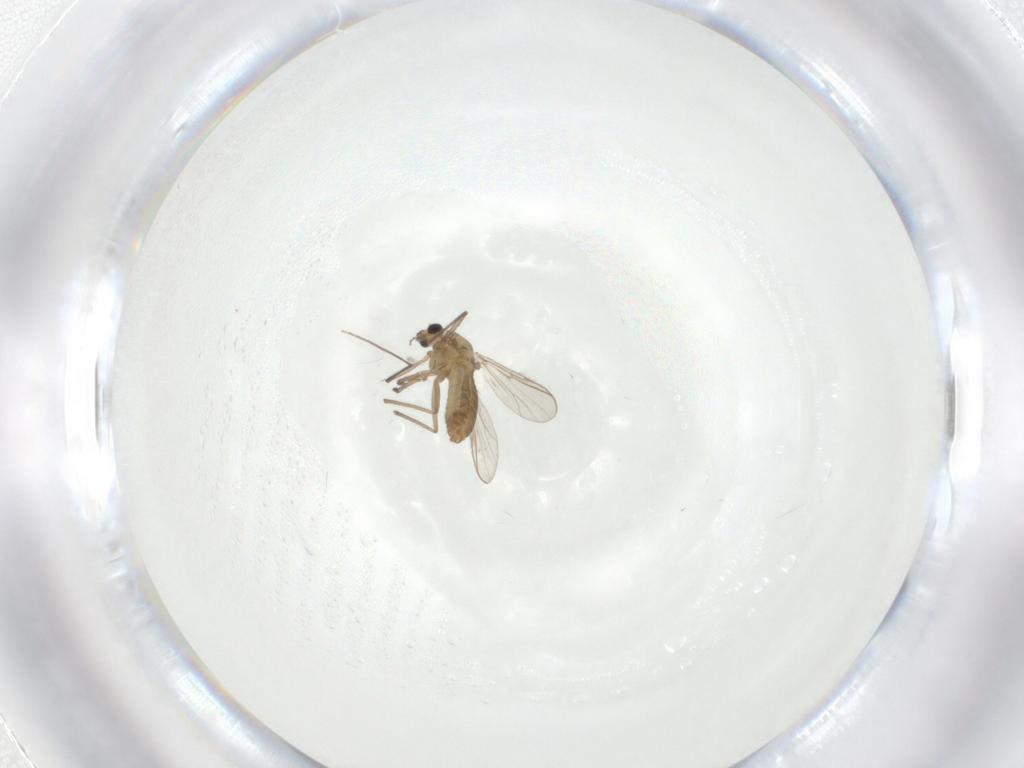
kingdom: Animalia
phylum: Arthropoda
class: Insecta
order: Diptera
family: Chironomidae
